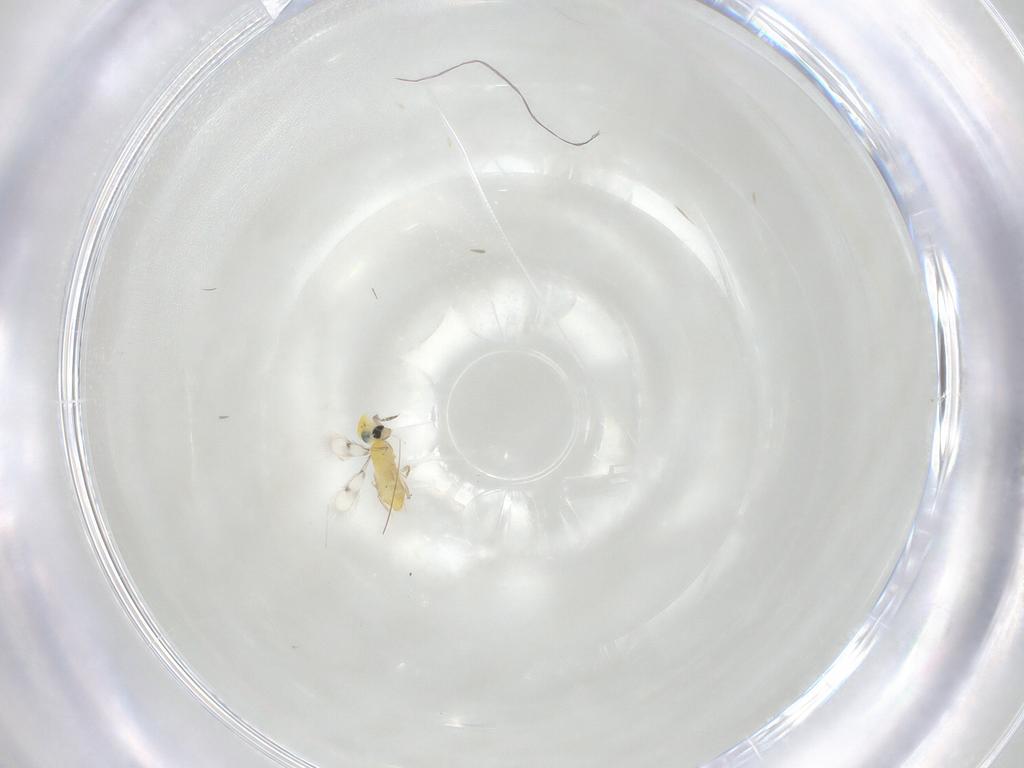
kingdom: Animalia
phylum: Arthropoda
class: Insecta
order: Hymenoptera
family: Trichogrammatidae
